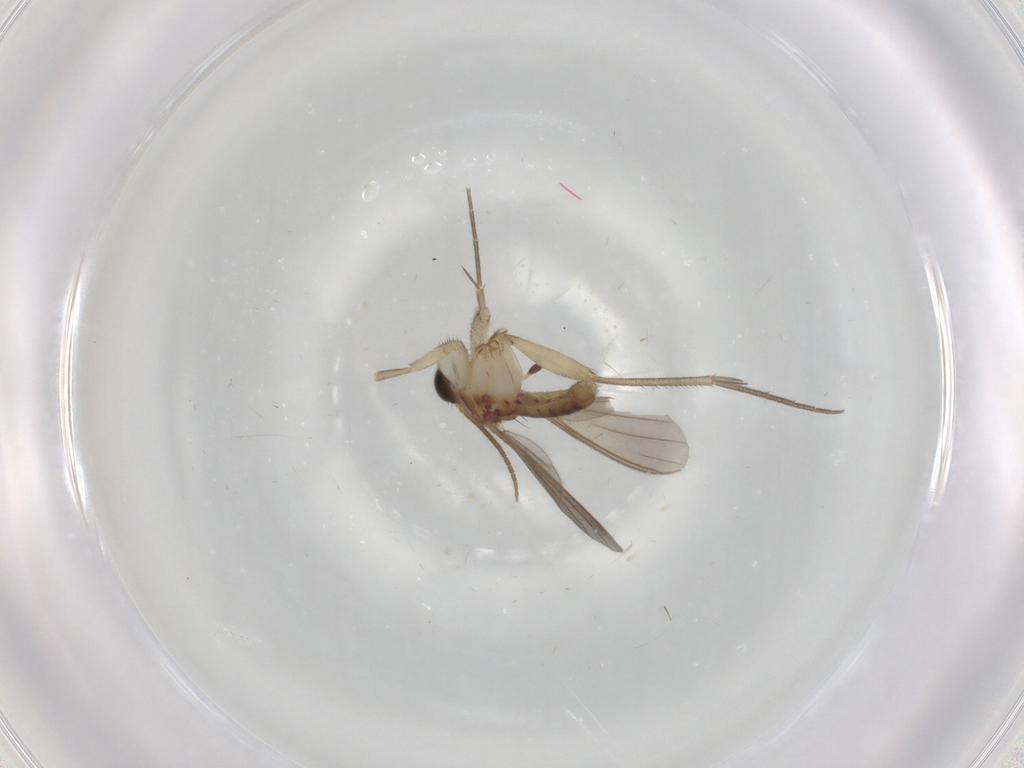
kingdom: Animalia
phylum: Arthropoda
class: Insecta
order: Diptera
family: Mycetophilidae
